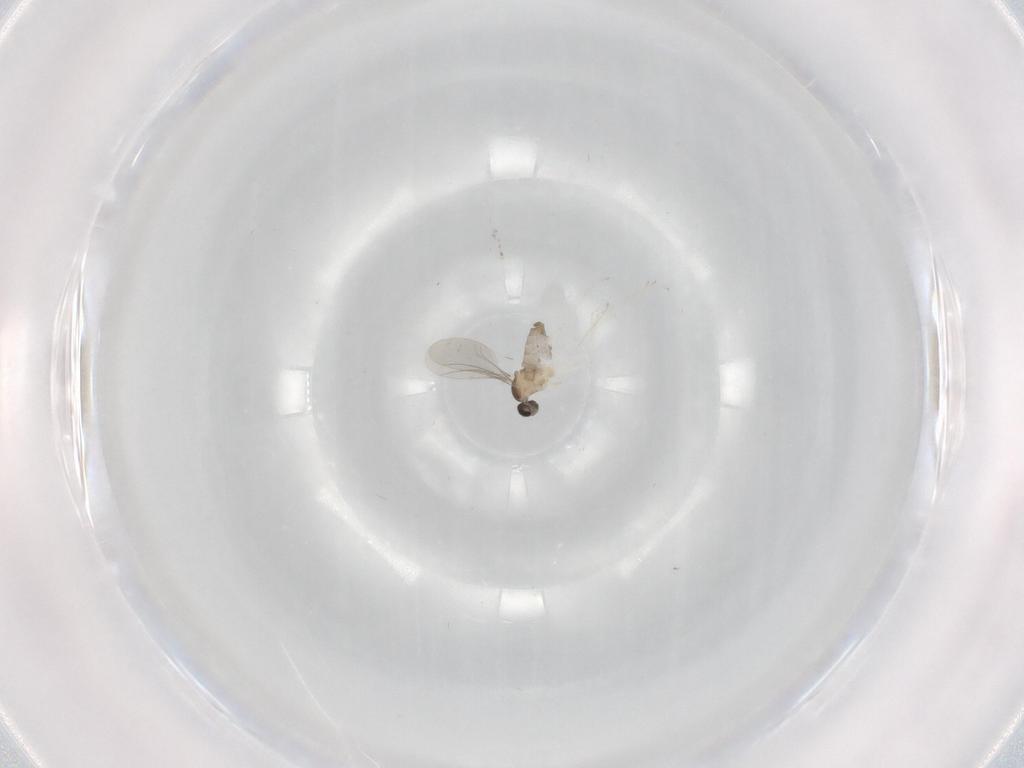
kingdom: Animalia
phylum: Arthropoda
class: Insecta
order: Diptera
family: Cecidomyiidae
